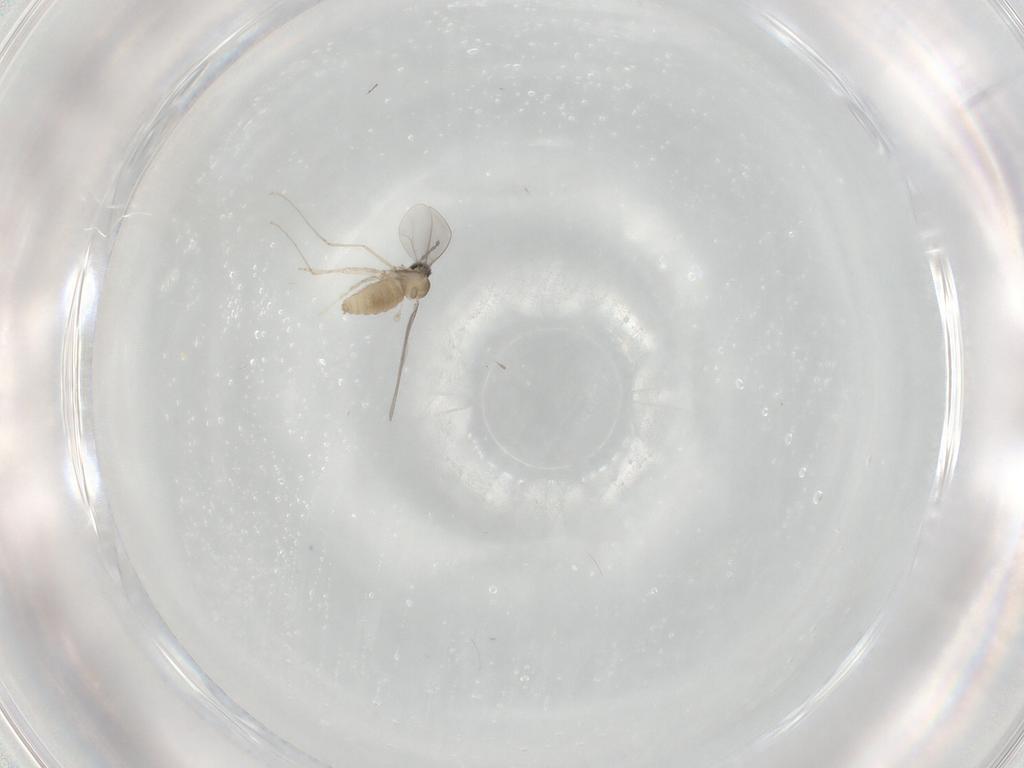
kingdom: Animalia
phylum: Arthropoda
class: Insecta
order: Diptera
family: Cecidomyiidae
